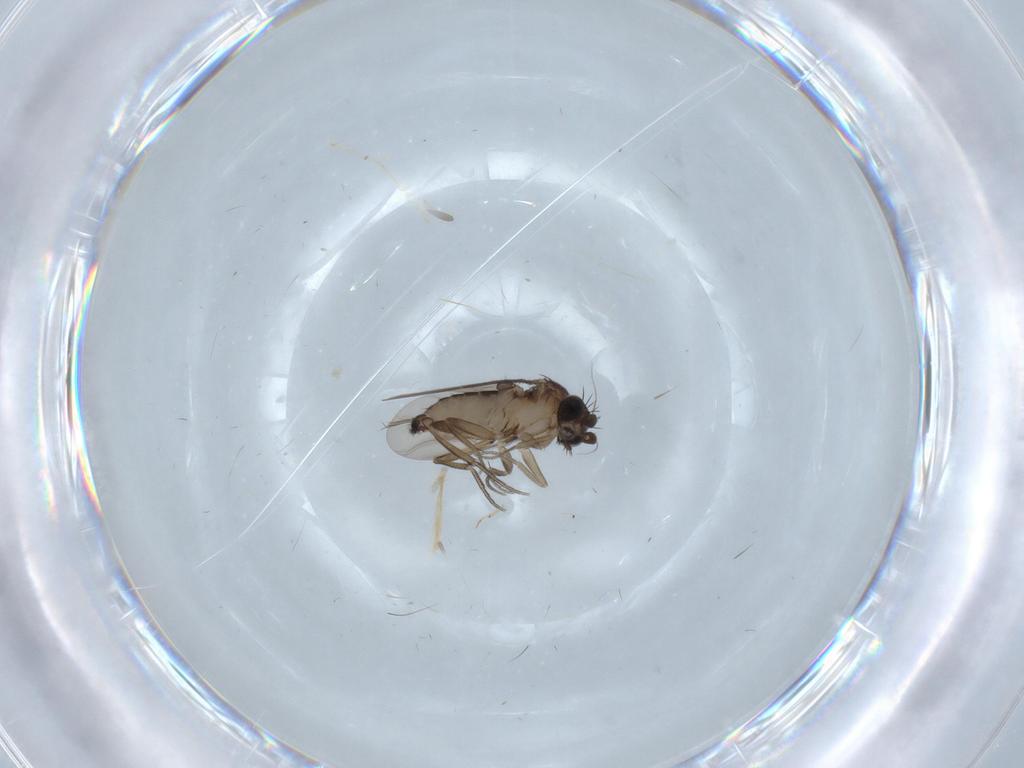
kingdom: Animalia
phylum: Arthropoda
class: Insecta
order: Diptera
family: Phoridae
